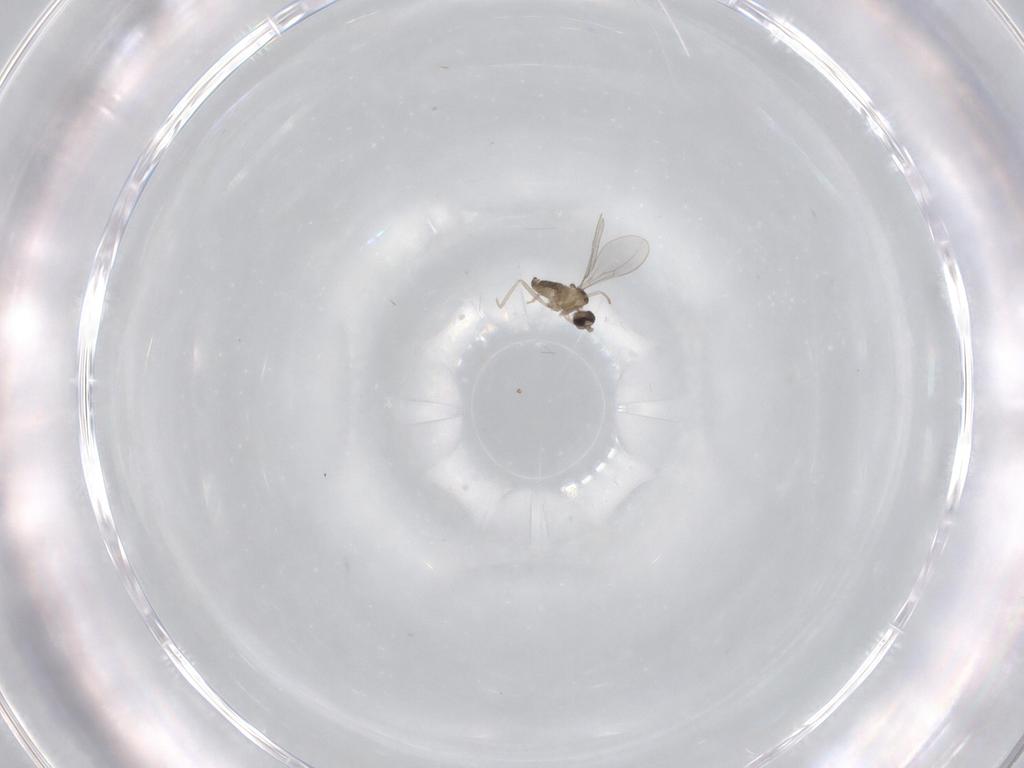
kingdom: Animalia
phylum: Arthropoda
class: Insecta
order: Diptera
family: Cecidomyiidae
